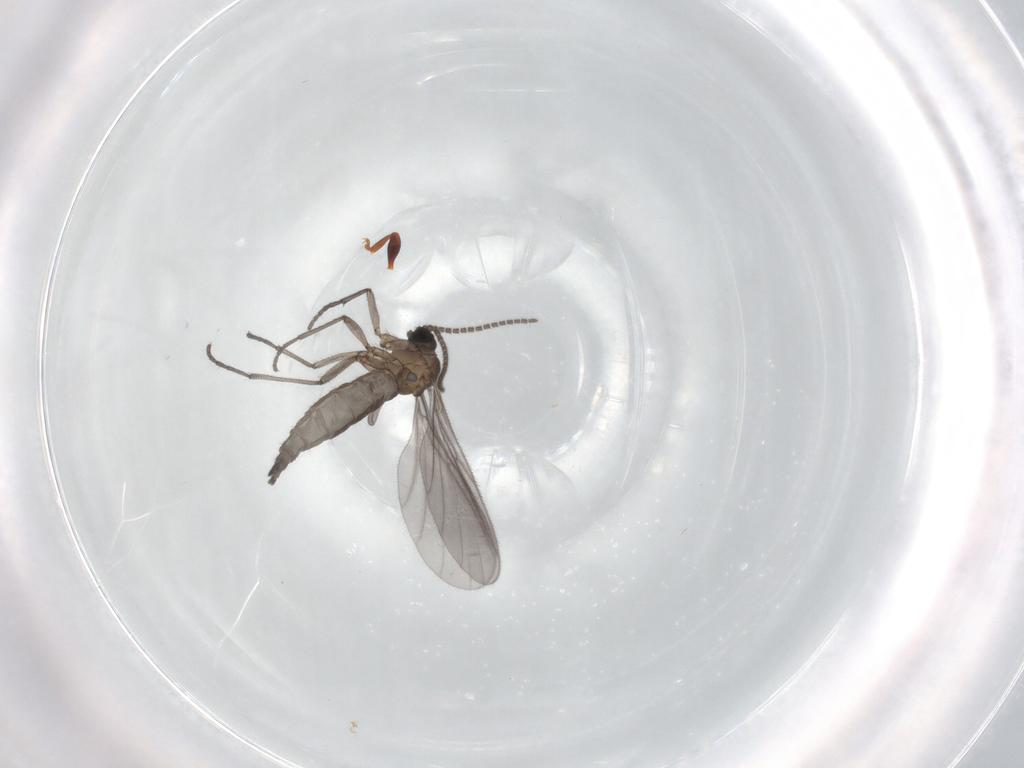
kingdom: Animalia
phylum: Arthropoda
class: Insecta
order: Diptera
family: Sciaridae
